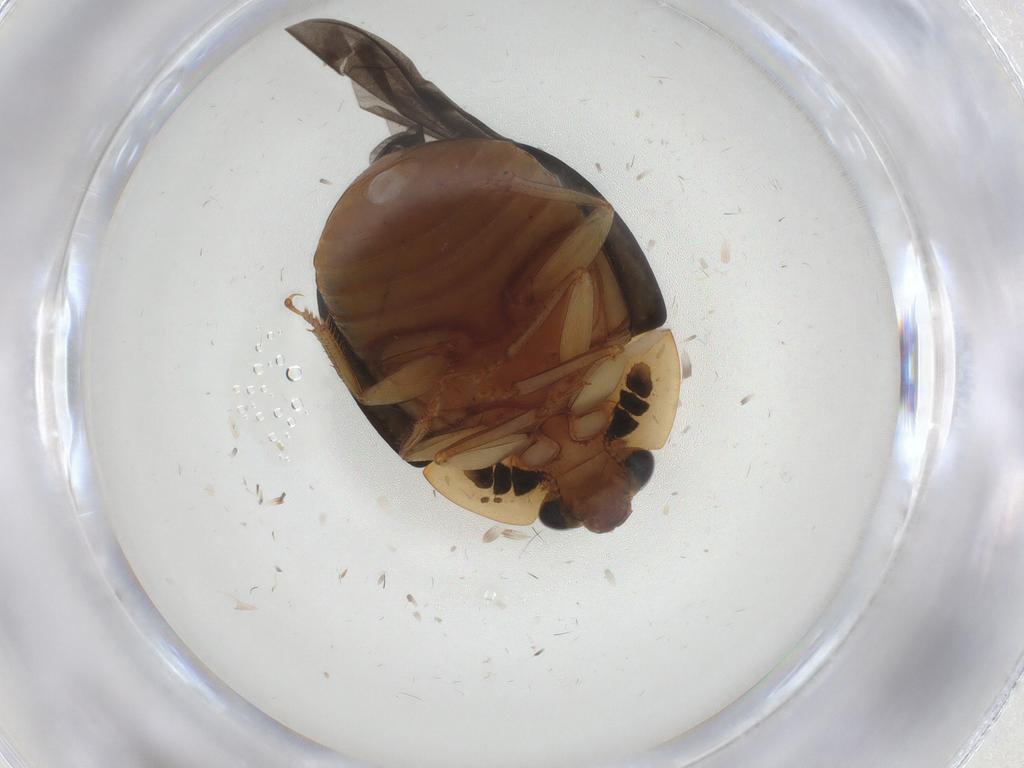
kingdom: Animalia
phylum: Arthropoda
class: Insecta
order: Coleoptera
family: Nitidulidae
